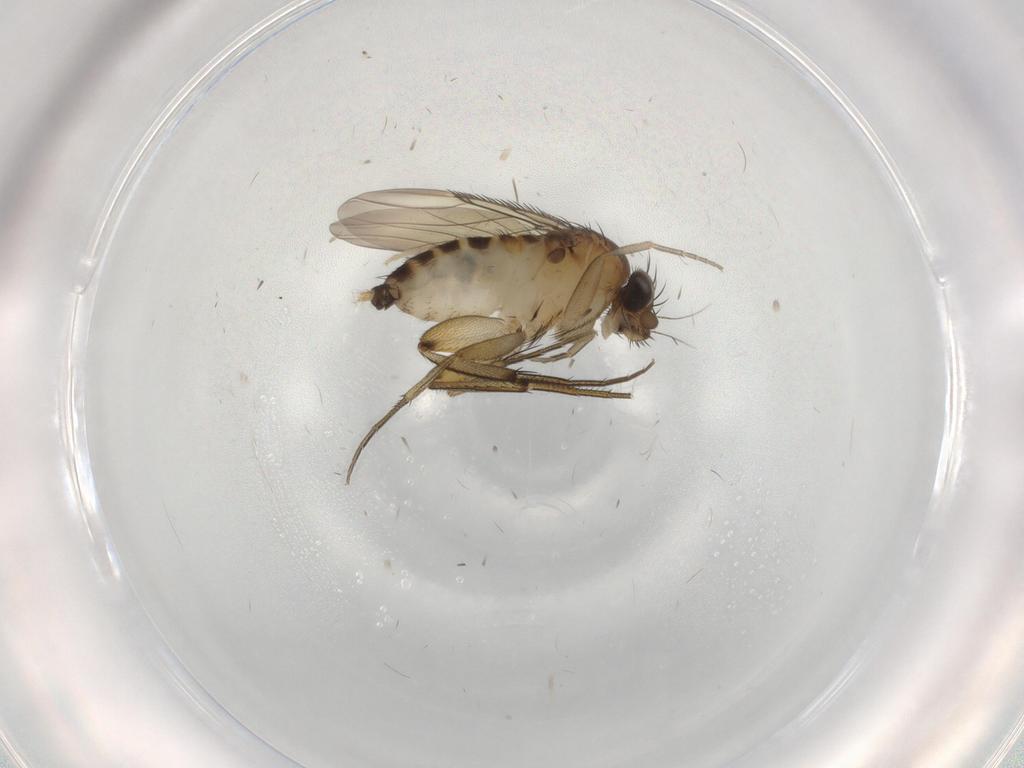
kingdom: Animalia
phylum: Arthropoda
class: Insecta
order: Diptera
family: Phoridae
